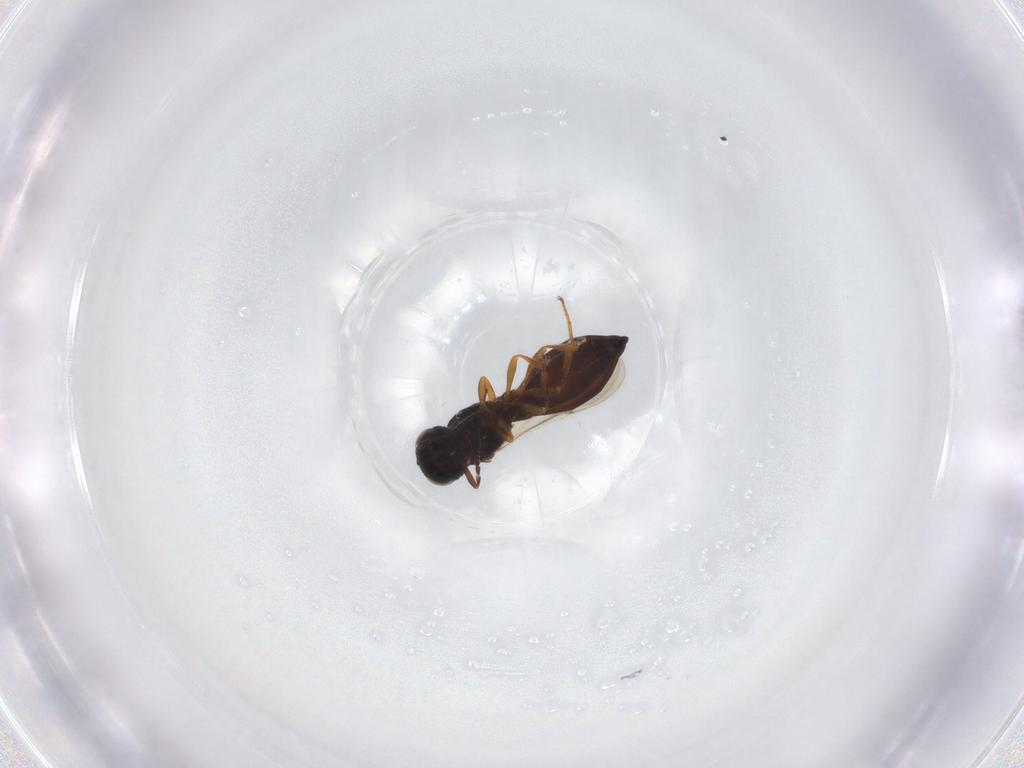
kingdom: Animalia
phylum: Arthropoda
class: Insecta
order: Hymenoptera
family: Scelionidae
